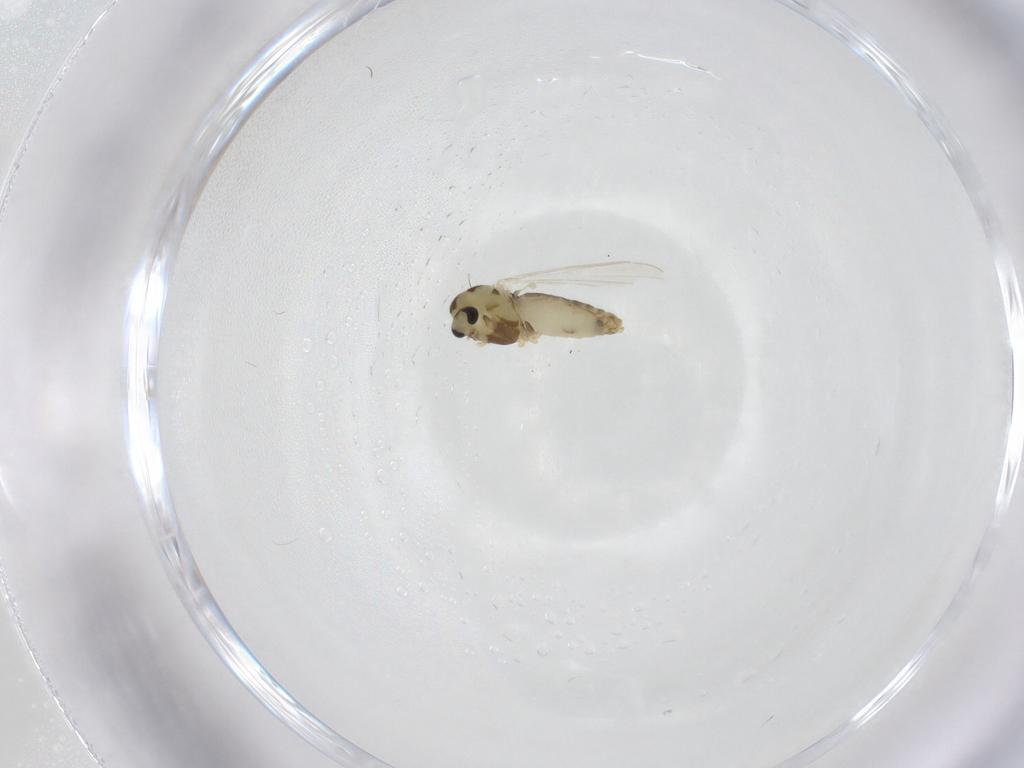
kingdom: Animalia
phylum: Arthropoda
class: Insecta
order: Diptera
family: Chironomidae
